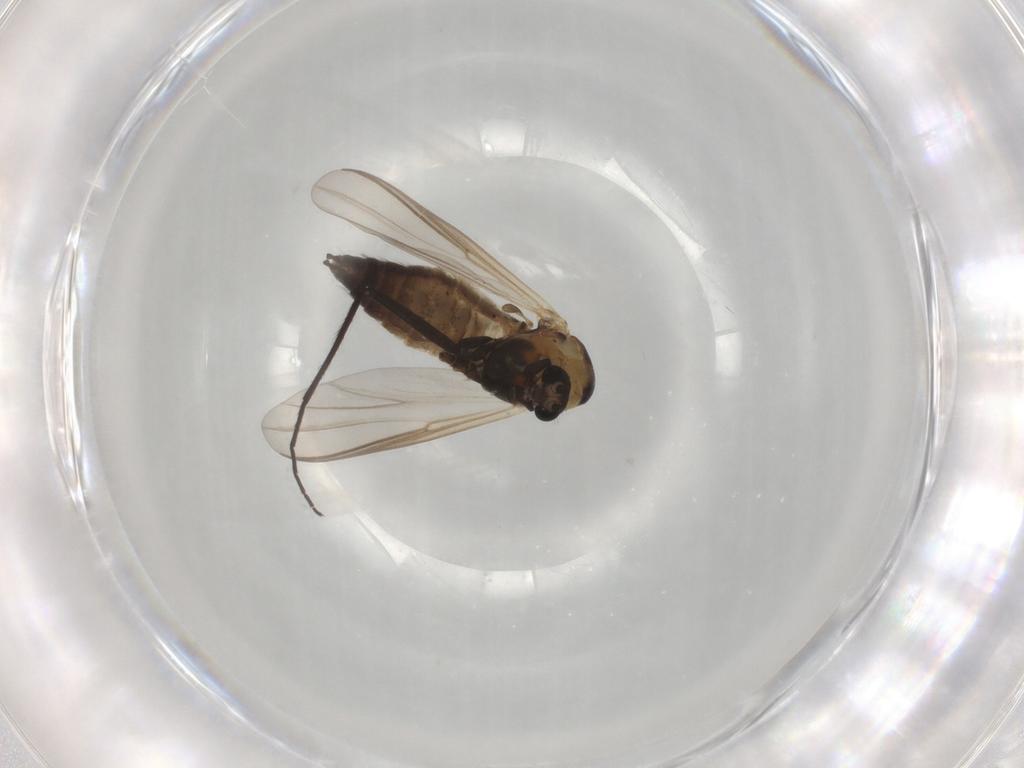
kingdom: Animalia
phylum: Arthropoda
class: Insecta
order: Diptera
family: Chironomidae
